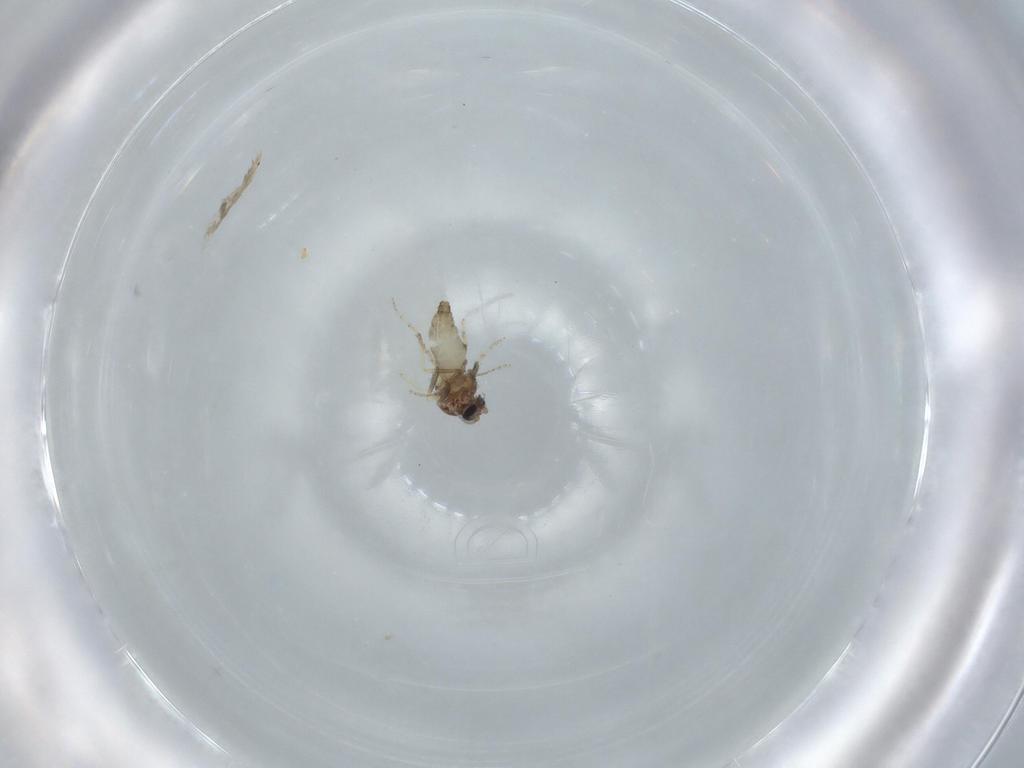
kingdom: Animalia
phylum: Arthropoda
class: Insecta
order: Diptera
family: Ceratopogonidae
